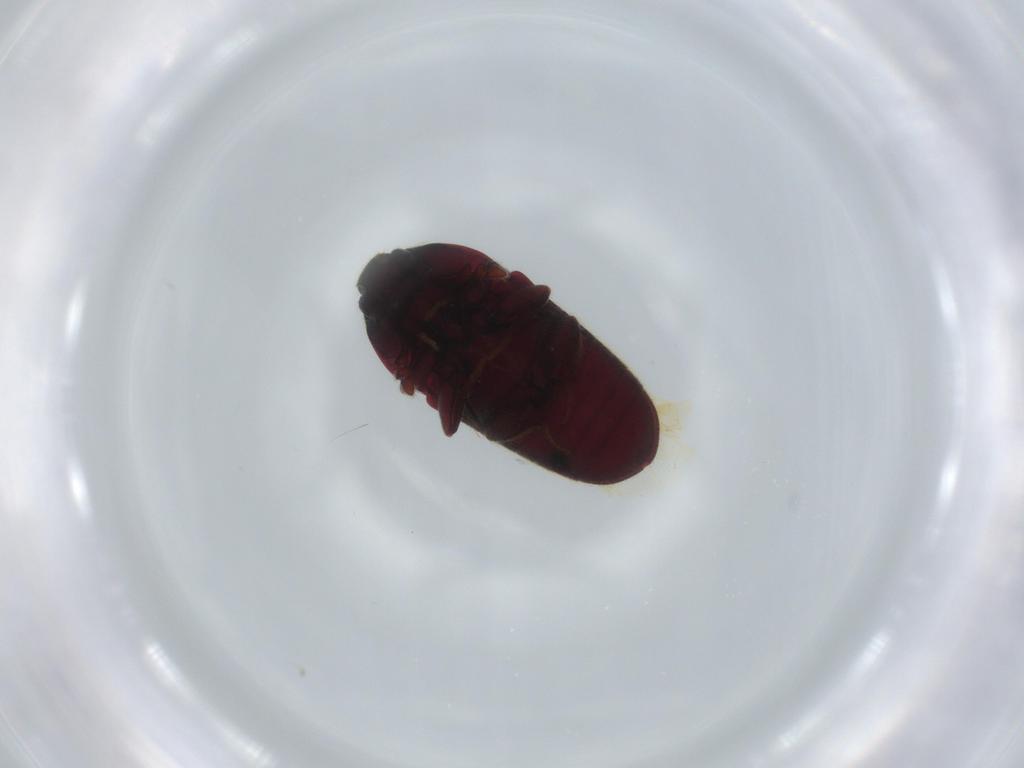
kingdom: Animalia
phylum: Arthropoda
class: Insecta
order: Coleoptera
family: Throscidae
